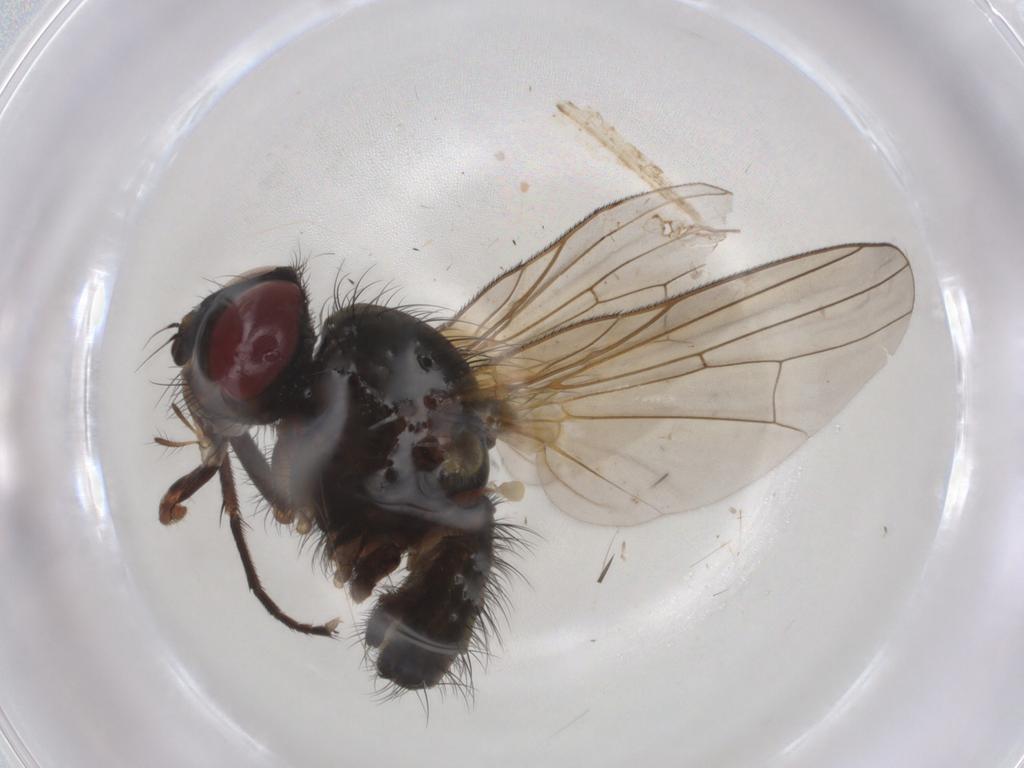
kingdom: Animalia
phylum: Arthropoda
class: Insecta
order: Diptera
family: Anthomyiidae
